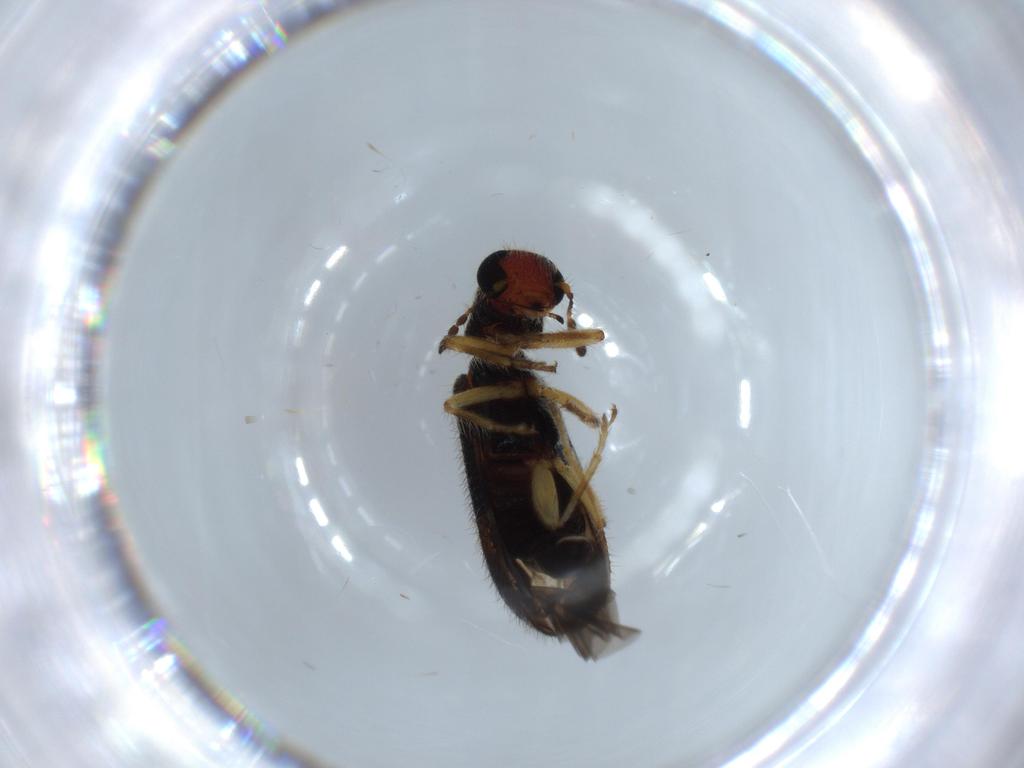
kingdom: Animalia
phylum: Arthropoda
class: Insecta
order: Coleoptera
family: Cleridae
